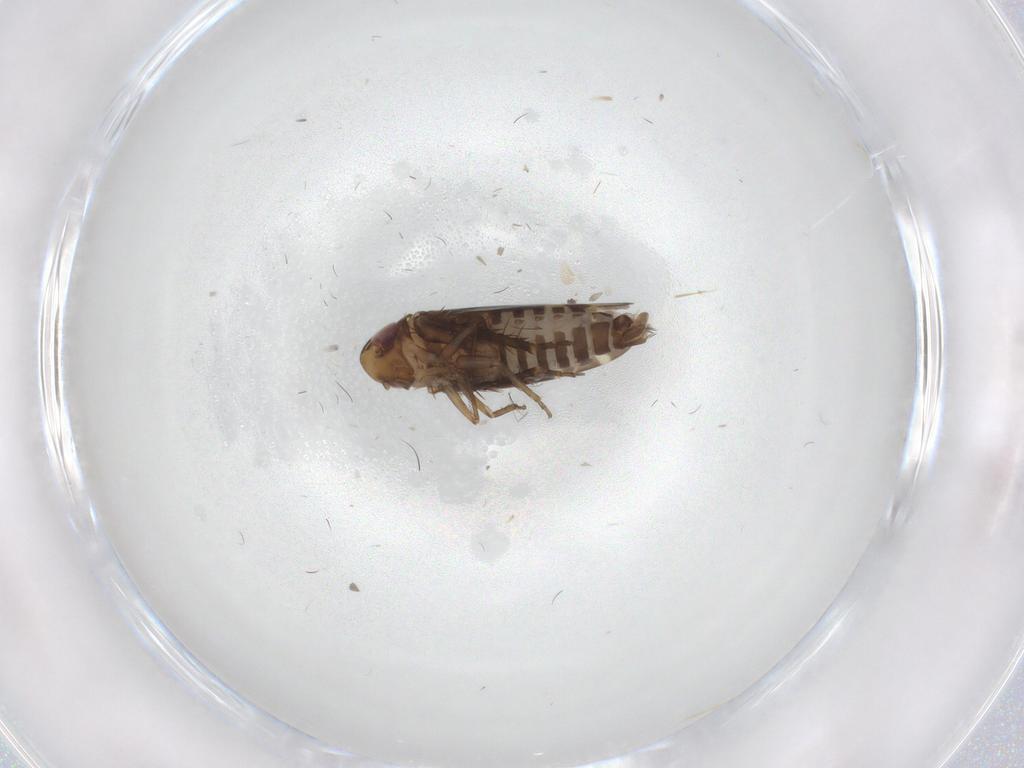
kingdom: Animalia
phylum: Arthropoda
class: Insecta
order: Hemiptera
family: Cicadellidae
